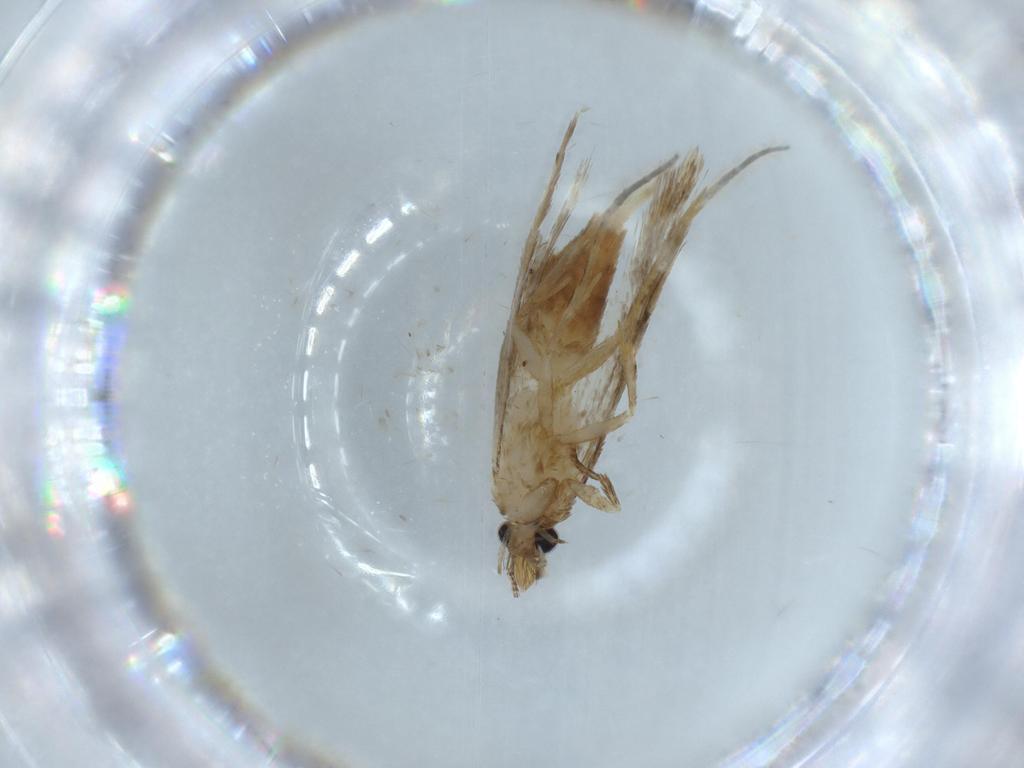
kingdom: Animalia
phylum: Arthropoda
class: Insecta
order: Lepidoptera
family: Tineidae
